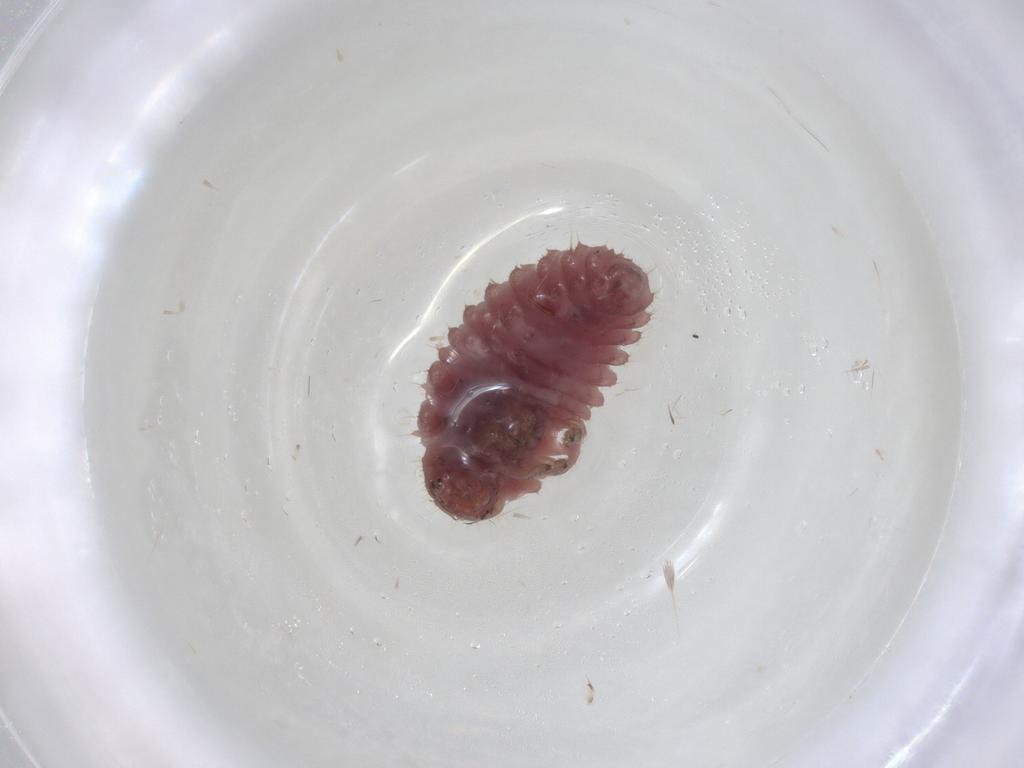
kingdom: Animalia
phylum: Arthropoda
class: Insecta
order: Coleoptera
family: Coccinellidae
